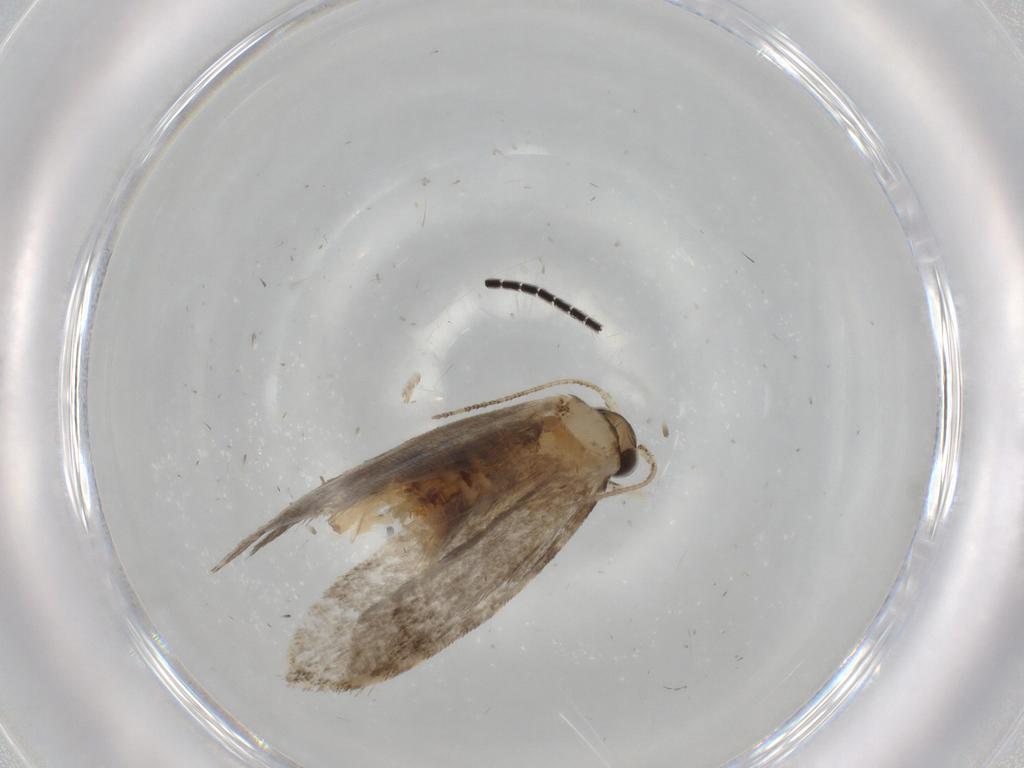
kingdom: Animalia
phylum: Arthropoda
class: Insecta
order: Lepidoptera
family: Tineidae
